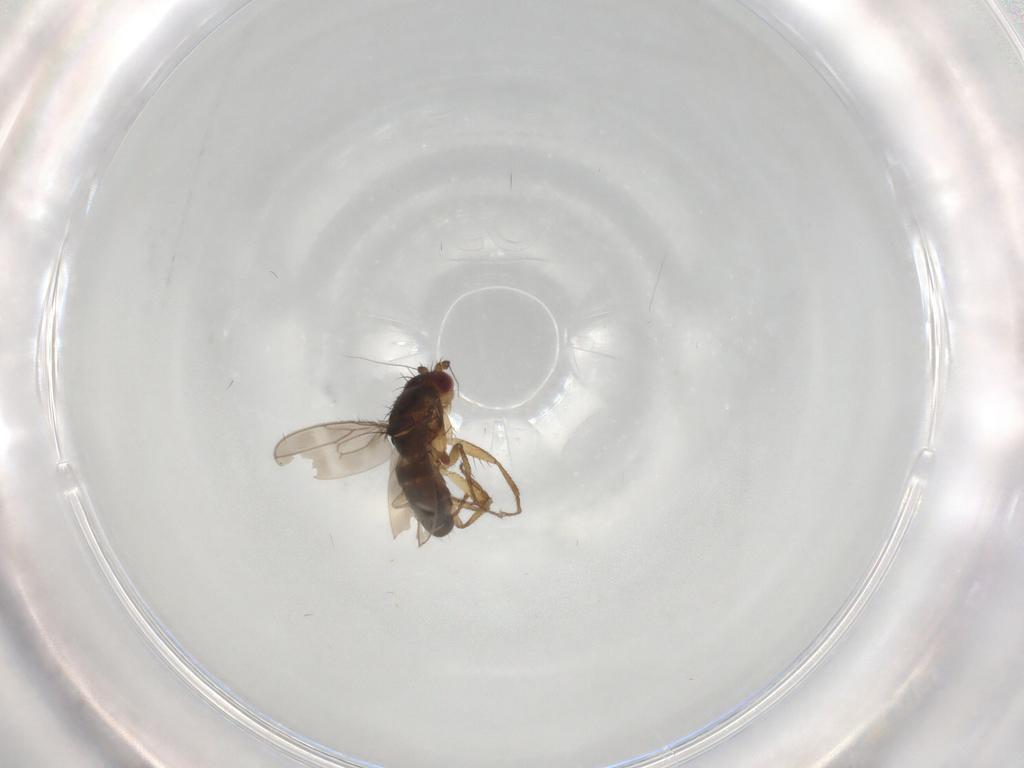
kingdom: Animalia
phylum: Arthropoda
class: Insecta
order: Diptera
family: Sphaeroceridae
